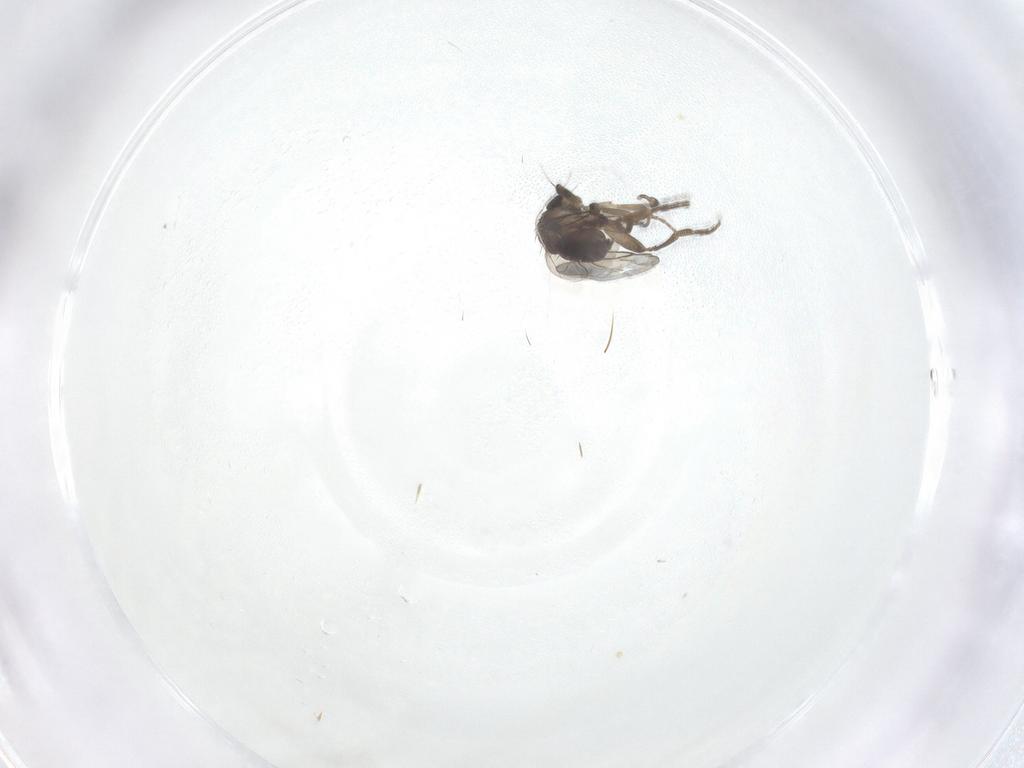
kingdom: Animalia
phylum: Arthropoda
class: Insecta
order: Diptera
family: Phoridae
